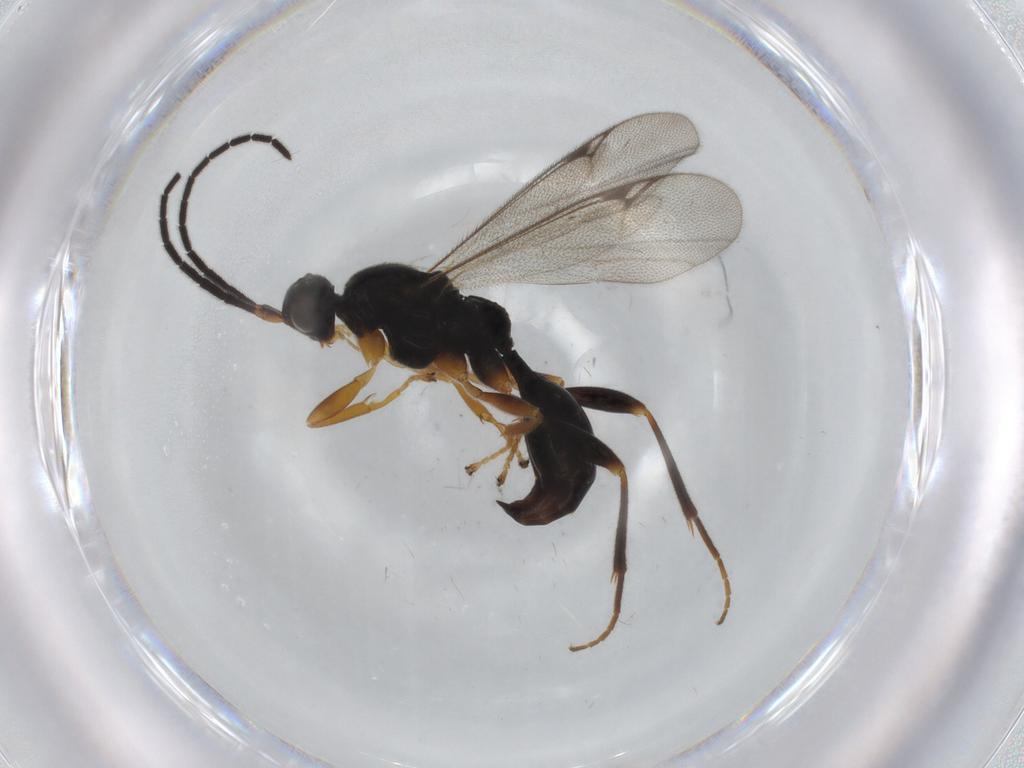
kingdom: Animalia
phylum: Arthropoda
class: Insecta
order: Hymenoptera
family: Proctotrupidae
